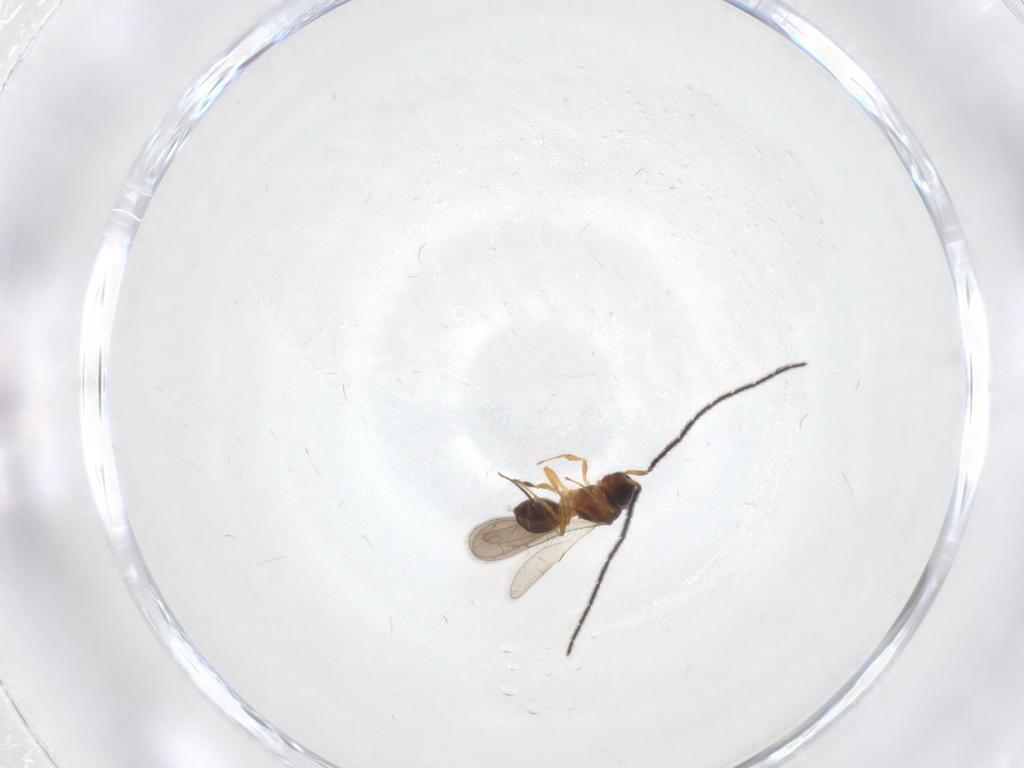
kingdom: Animalia
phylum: Arthropoda
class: Insecta
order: Hymenoptera
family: Scelionidae
